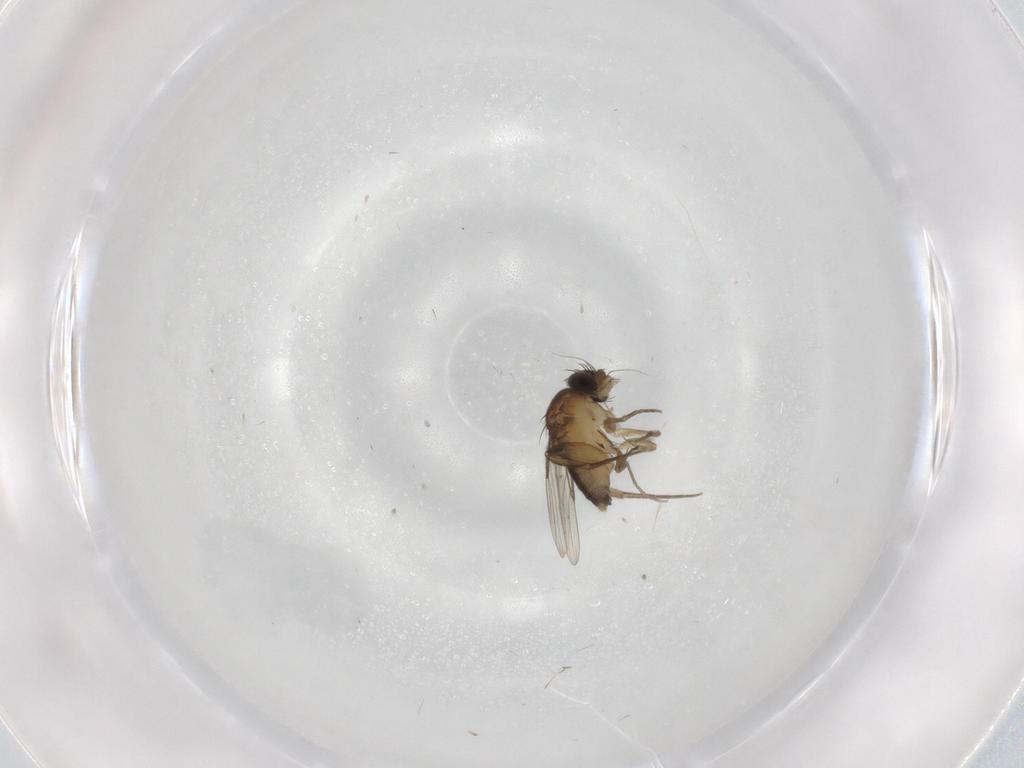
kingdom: Animalia
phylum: Arthropoda
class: Insecta
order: Diptera
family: Phoridae
